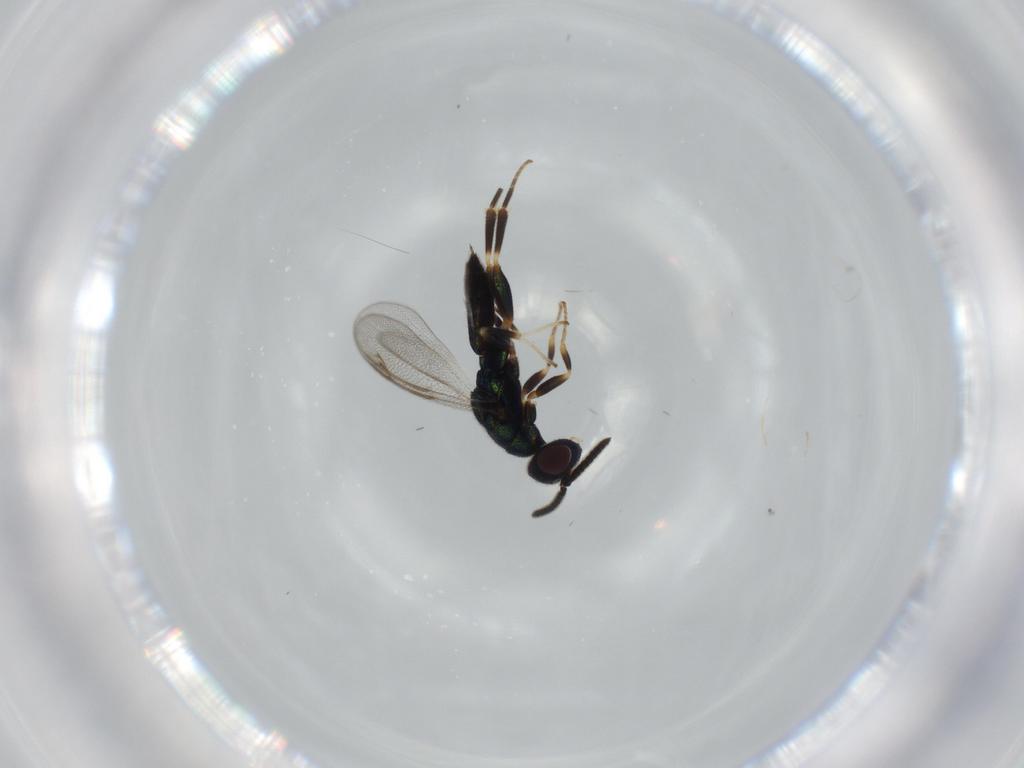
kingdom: Animalia
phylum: Arthropoda
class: Insecta
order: Hymenoptera
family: Cleonyminae
